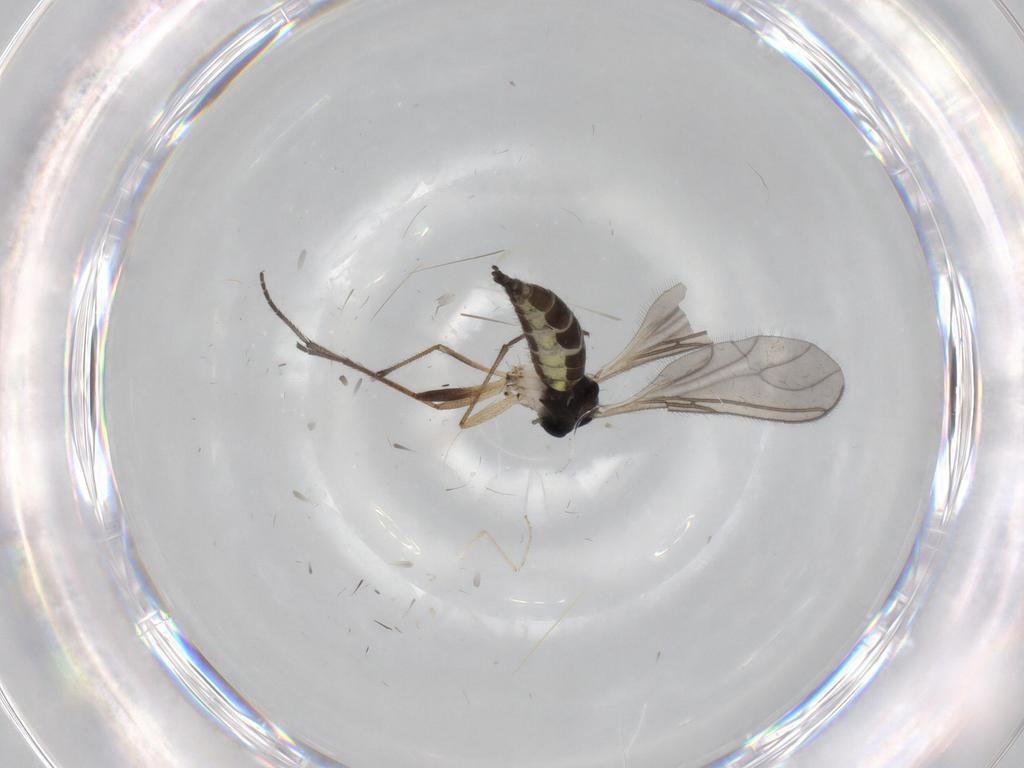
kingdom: Animalia
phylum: Arthropoda
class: Insecta
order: Diptera
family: Sciaridae
